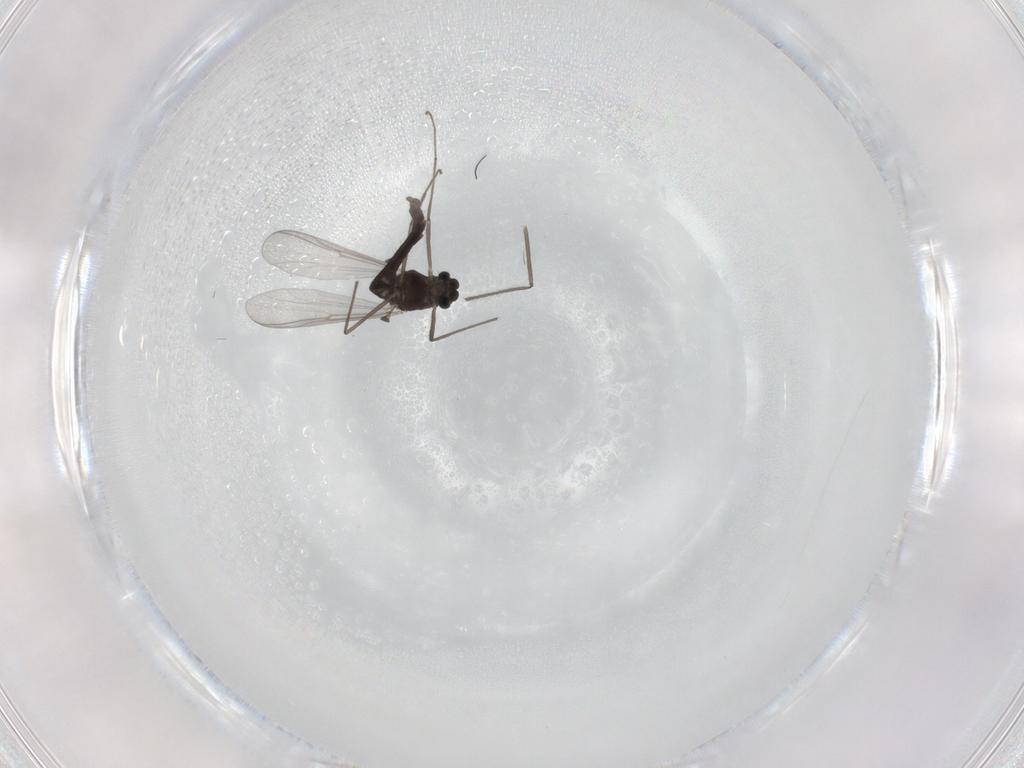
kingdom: Animalia
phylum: Arthropoda
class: Insecta
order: Diptera
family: Chironomidae
